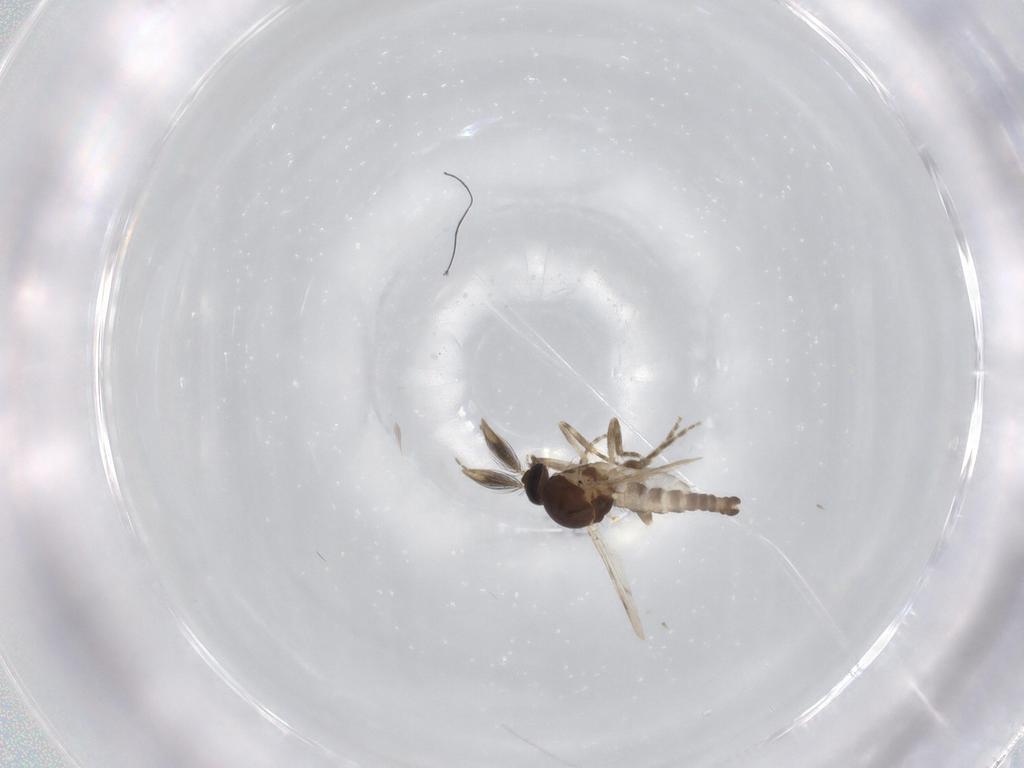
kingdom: Animalia
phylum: Arthropoda
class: Insecta
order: Diptera
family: Ceratopogonidae
